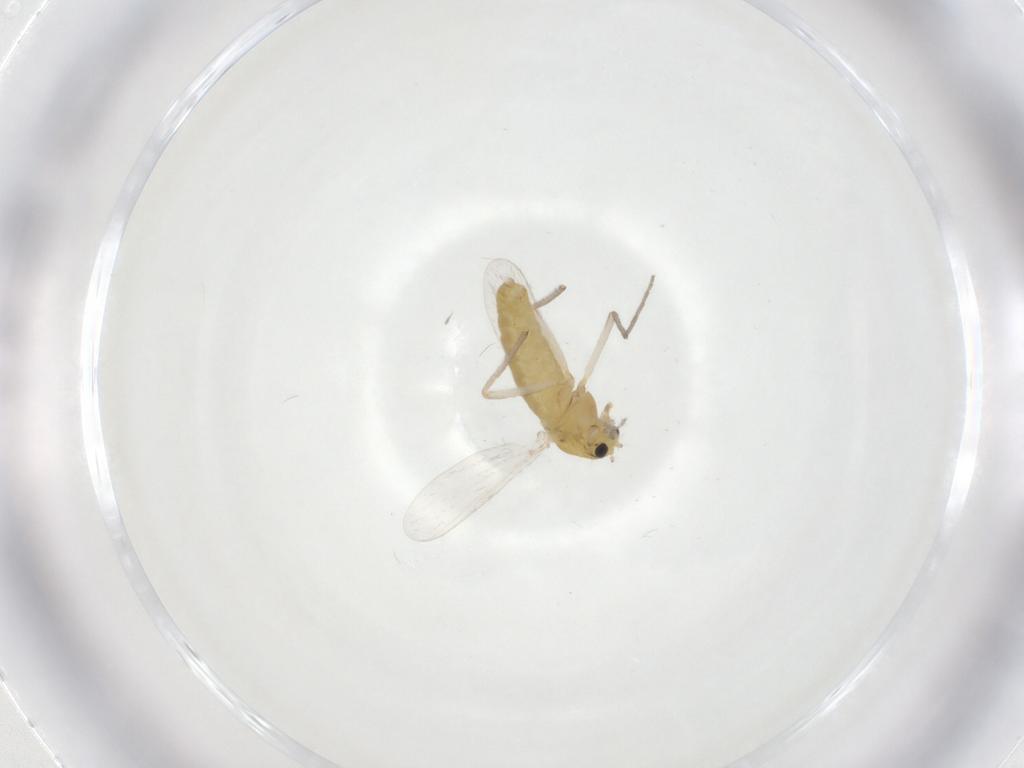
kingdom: Animalia
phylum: Arthropoda
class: Insecta
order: Diptera
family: Chironomidae
